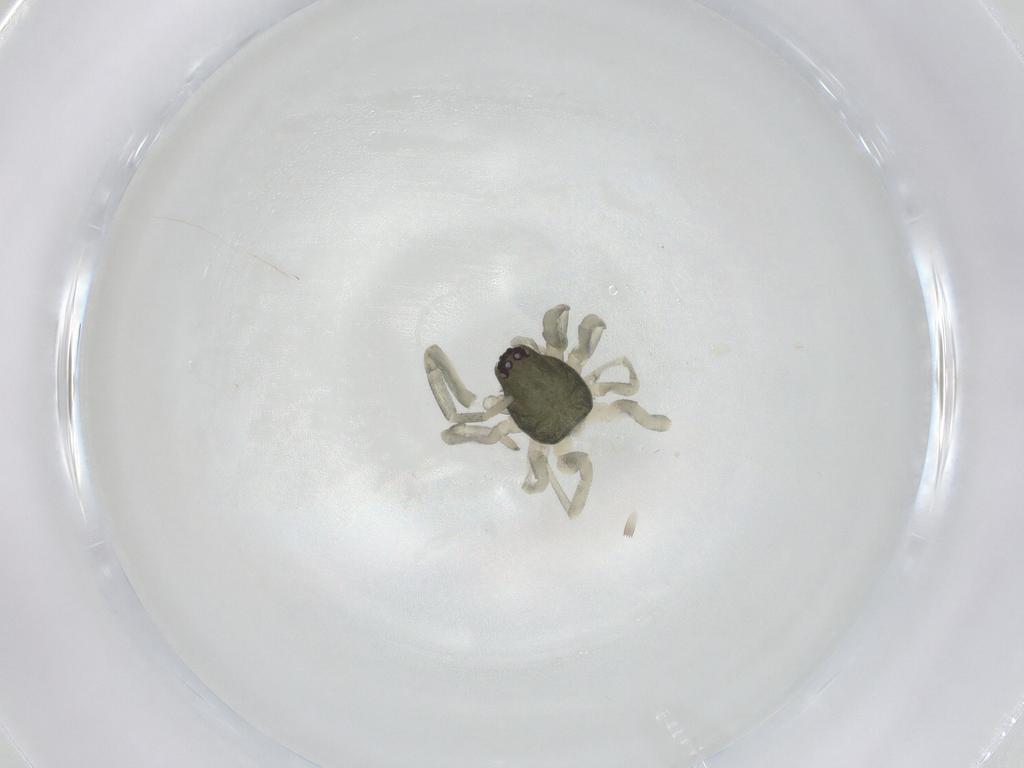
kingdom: Animalia
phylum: Arthropoda
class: Arachnida
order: Araneae
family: Trachelidae
